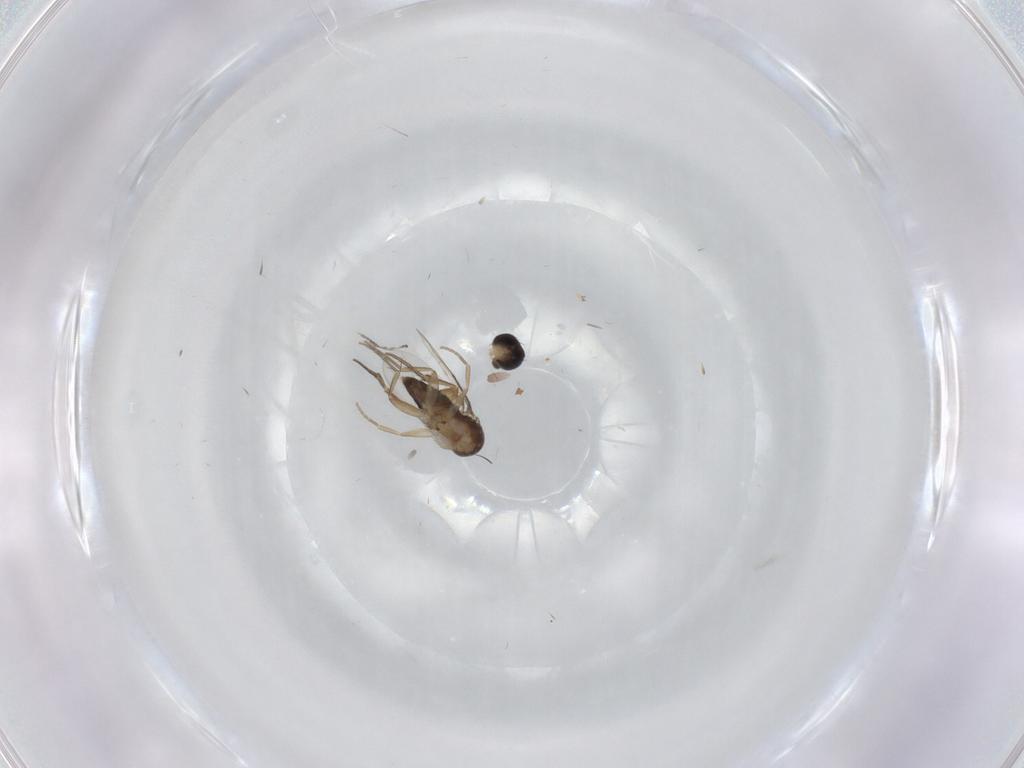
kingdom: Animalia
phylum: Arthropoda
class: Insecta
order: Diptera
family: Phoridae
